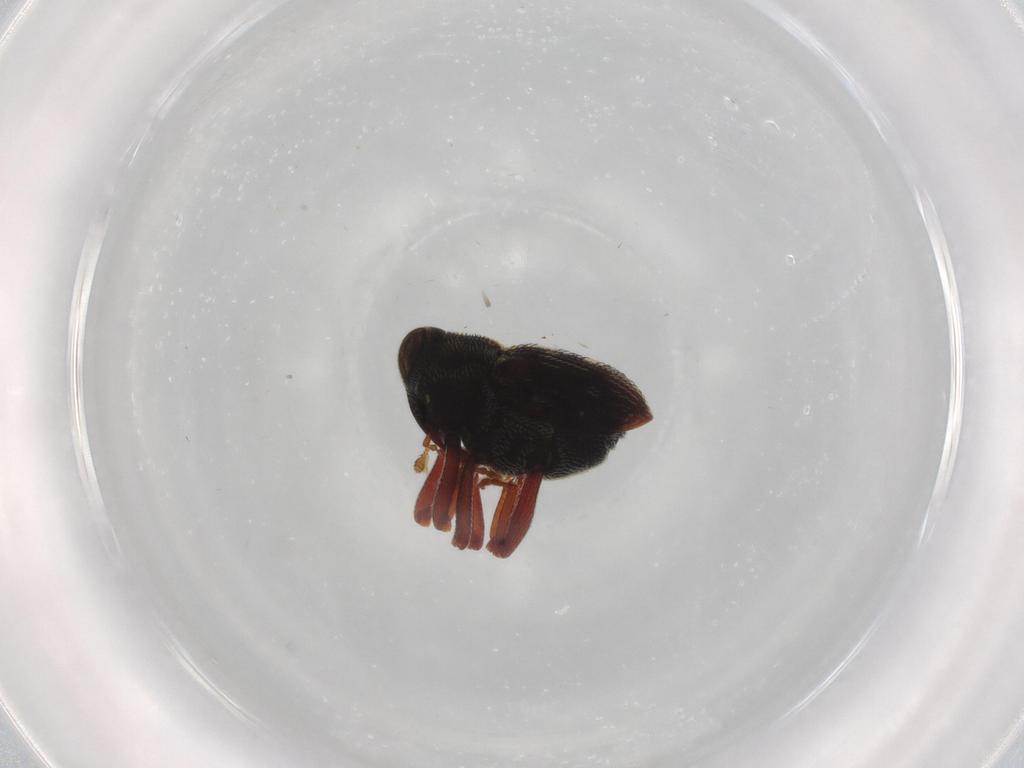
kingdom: Animalia
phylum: Arthropoda
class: Insecta
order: Coleoptera
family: Curculionidae
